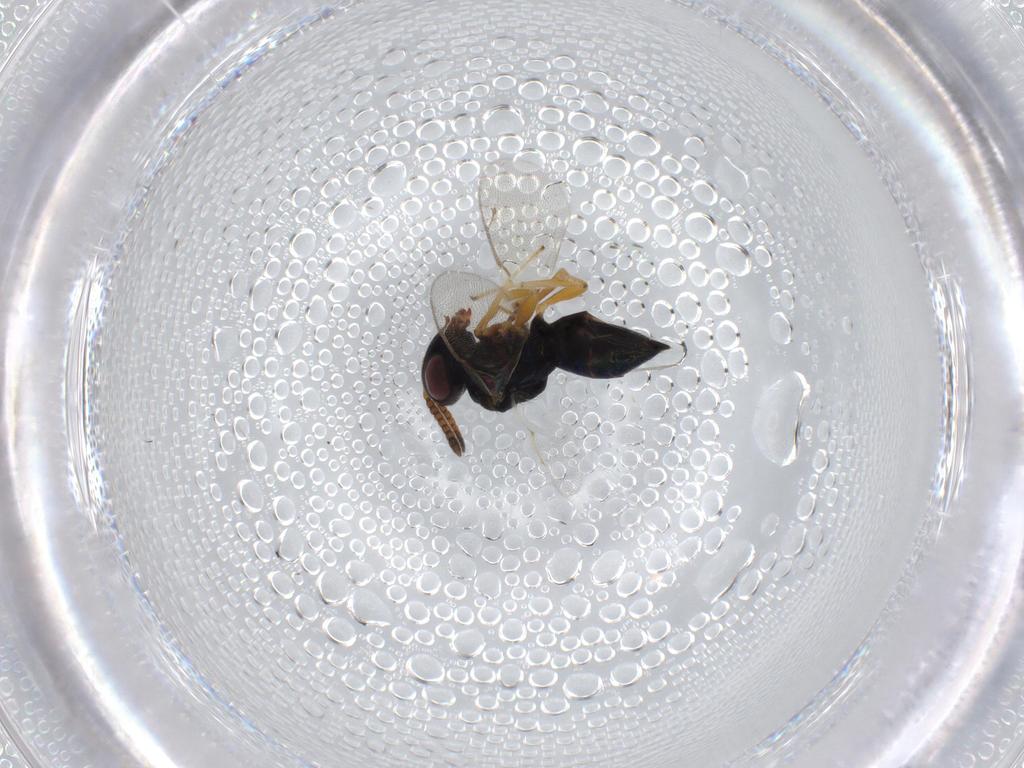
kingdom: Animalia
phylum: Arthropoda
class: Insecta
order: Hymenoptera
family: Pteromalidae
